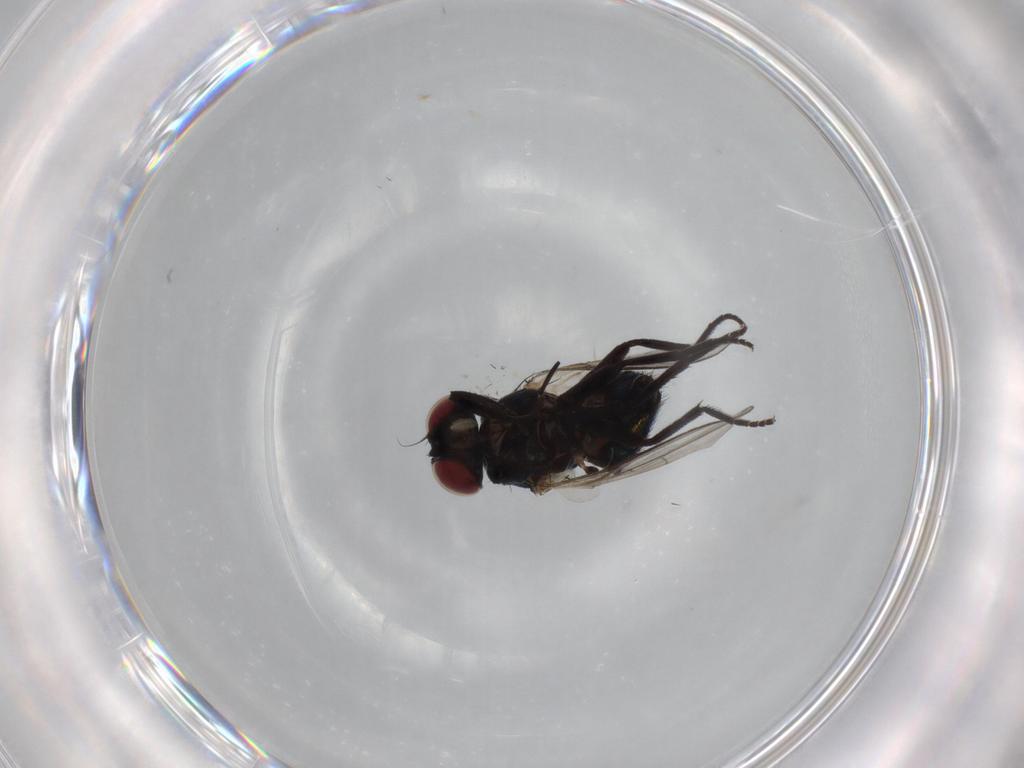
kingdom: Animalia
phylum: Arthropoda
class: Insecta
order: Diptera
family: Agromyzidae
